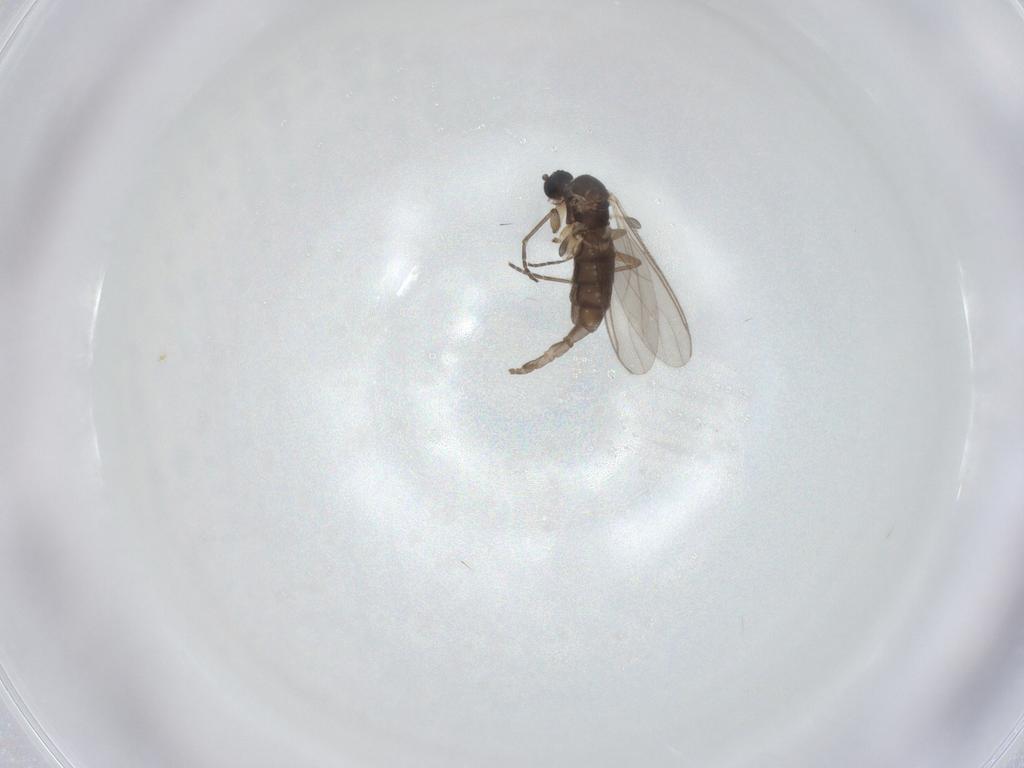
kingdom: Animalia
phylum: Arthropoda
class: Insecta
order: Diptera
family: Sciaridae
